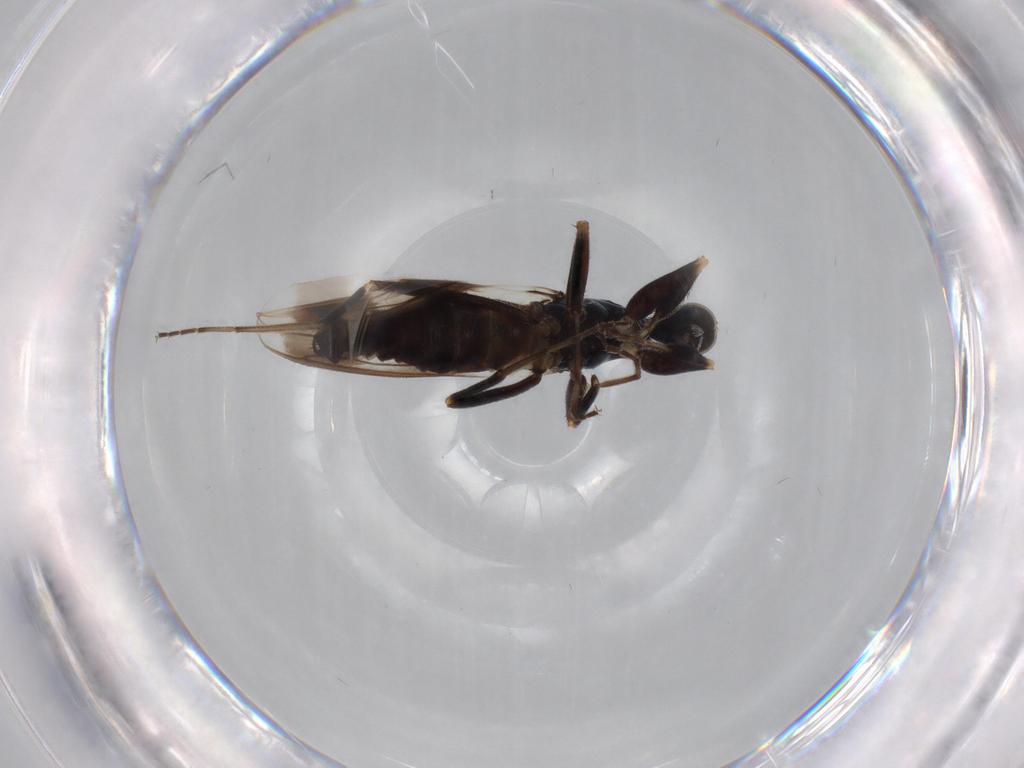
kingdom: Animalia
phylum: Arthropoda
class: Insecta
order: Diptera
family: Hybotidae
